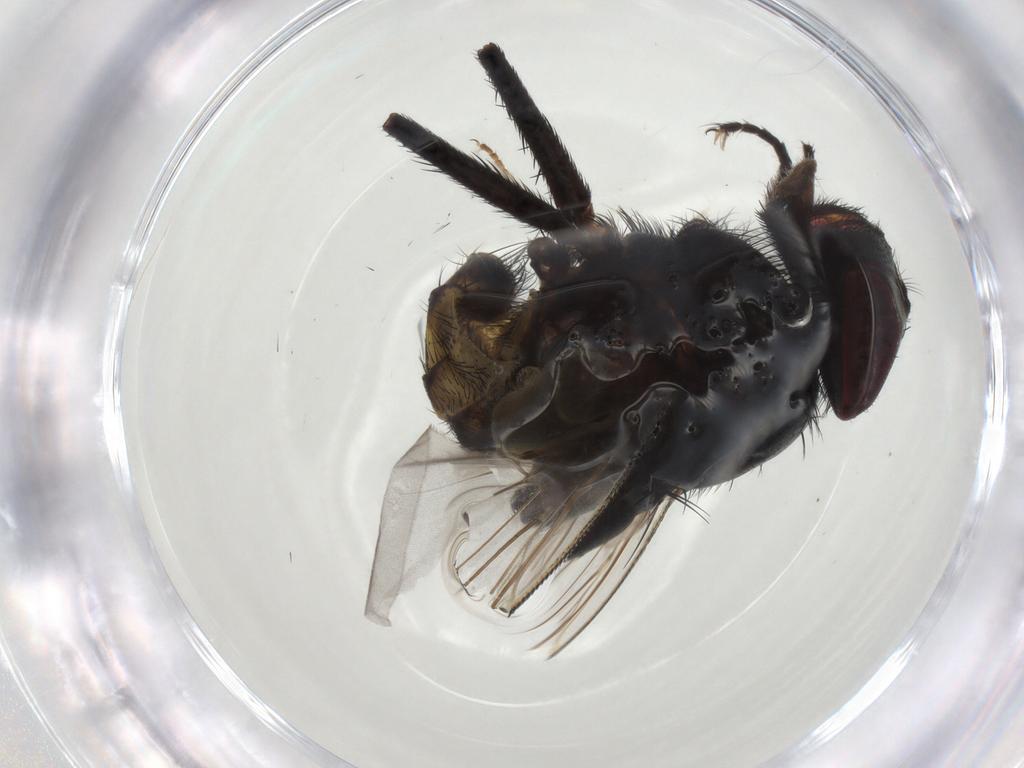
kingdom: Animalia
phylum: Arthropoda
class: Insecta
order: Diptera
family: Muscidae
